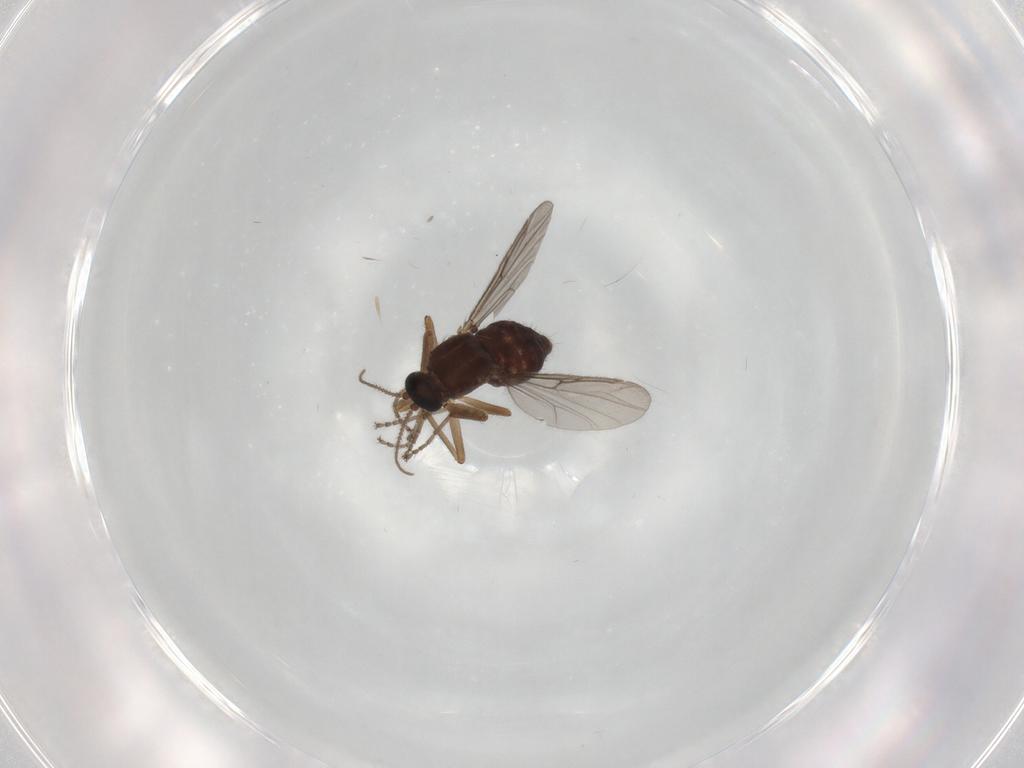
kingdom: Animalia
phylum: Arthropoda
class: Insecta
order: Diptera
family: Ceratopogonidae
